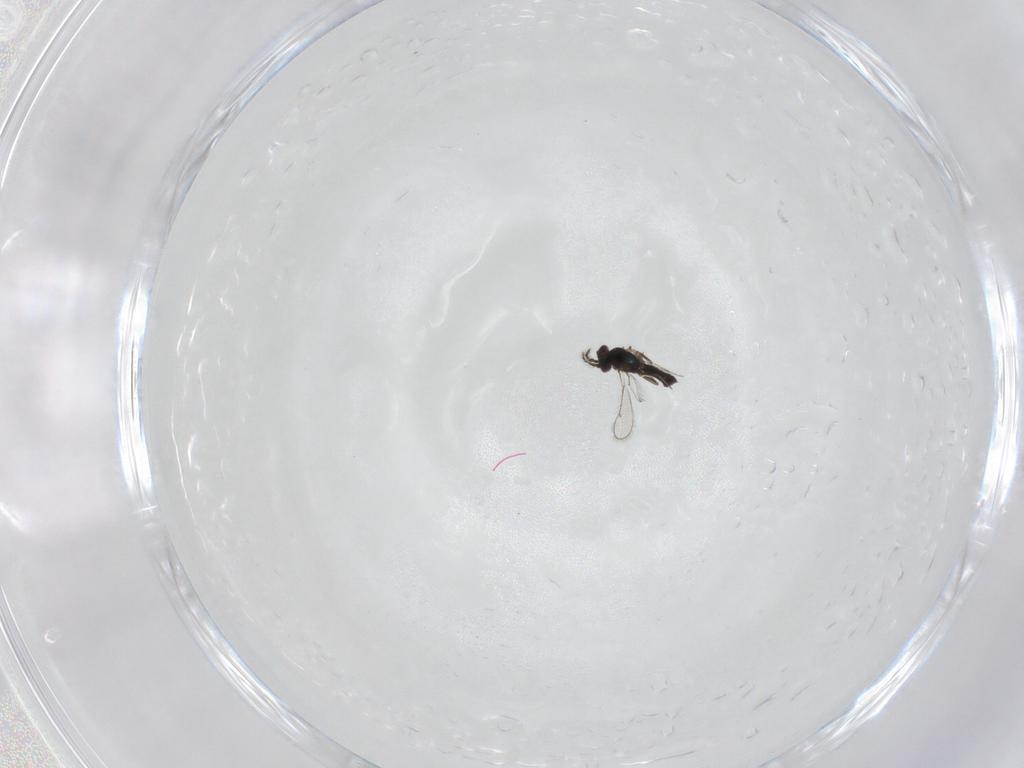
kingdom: Animalia
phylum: Arthropoda
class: Insecta
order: Hymenoptera
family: Eulophidae
